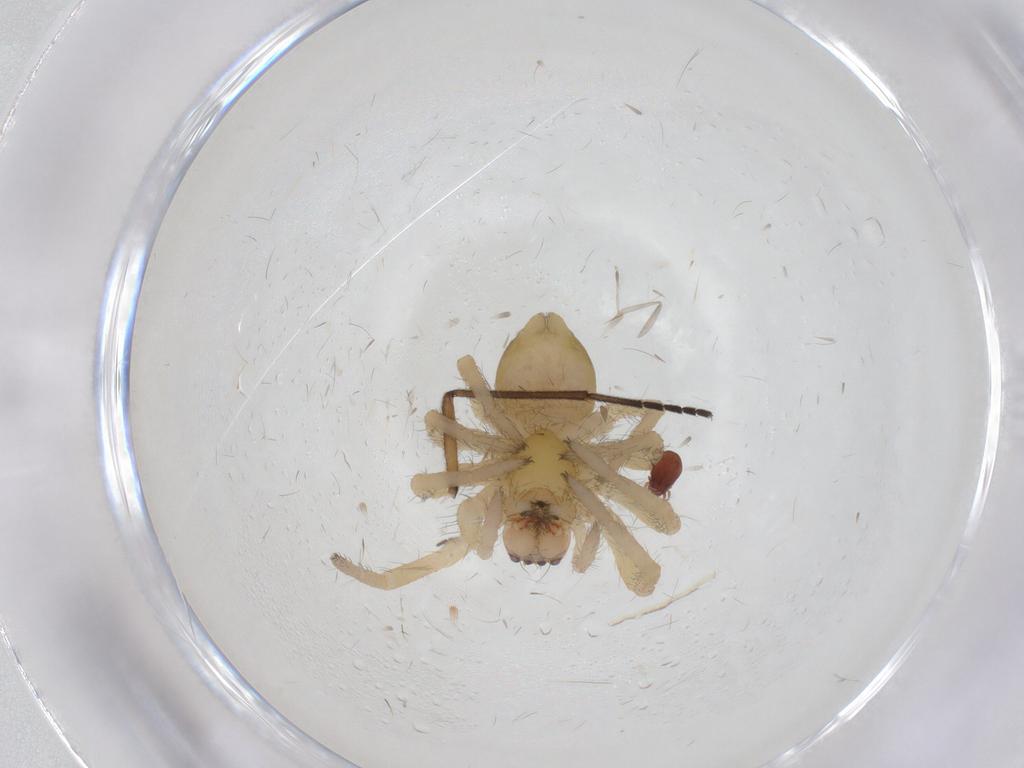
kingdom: Animalia
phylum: Arthropoda
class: Arachnida
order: Araneae
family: Mimetidae
